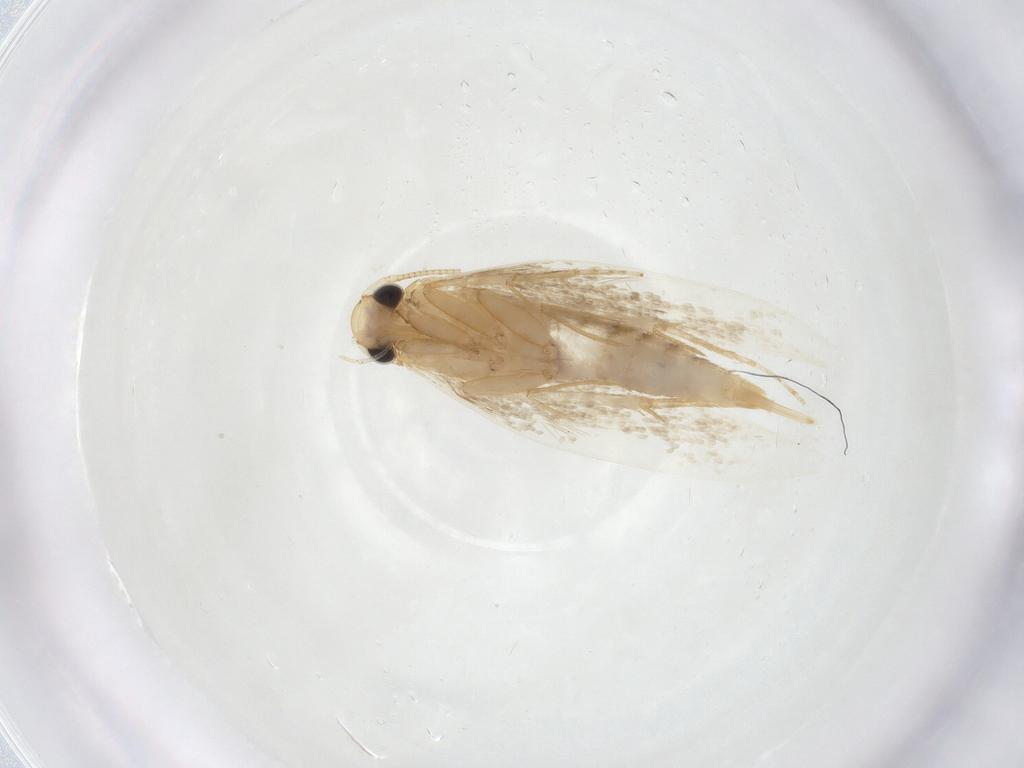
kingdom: Animalia
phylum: Arthropoda
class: Insecta
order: Lepidoptera
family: Tineidae
